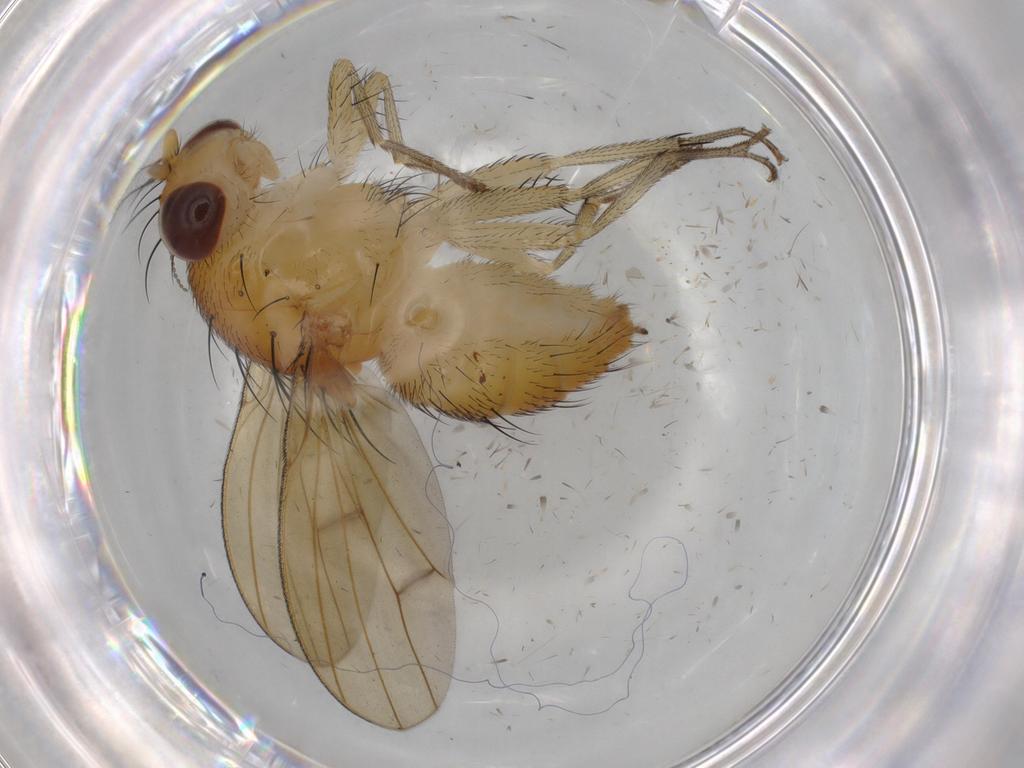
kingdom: Animalia
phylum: Arthropoda
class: Insecta
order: Diptera
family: Lauxaniidae
